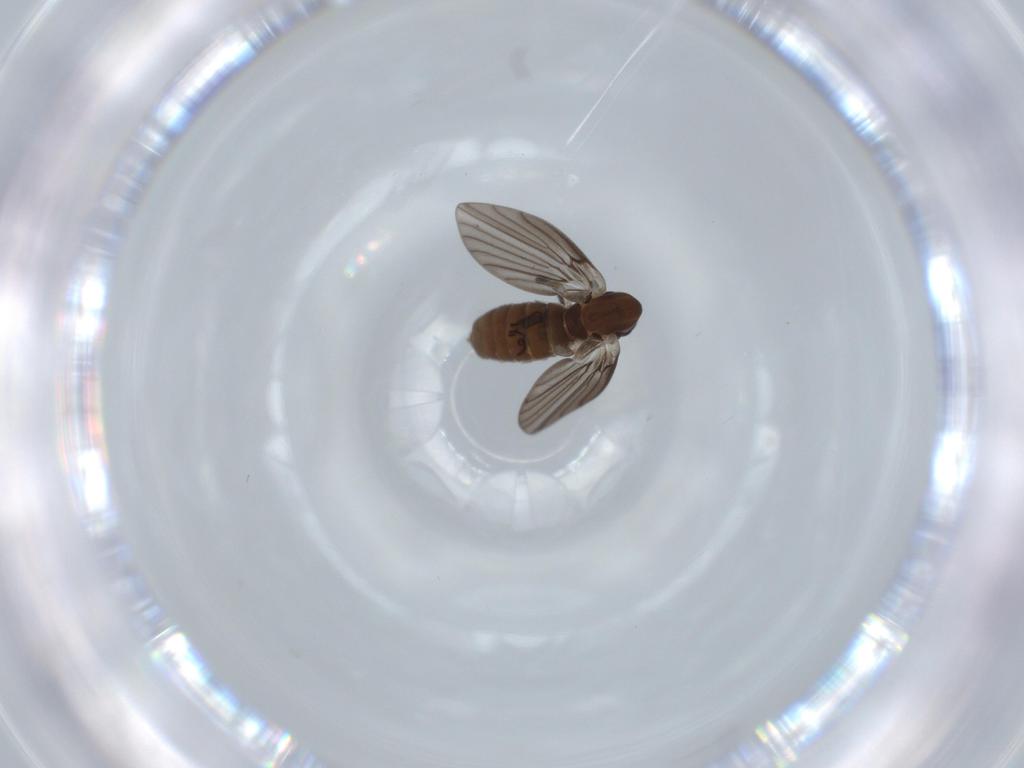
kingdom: Animalia
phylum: Arthropoda
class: Insecta
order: Diptera
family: Psychodidae
